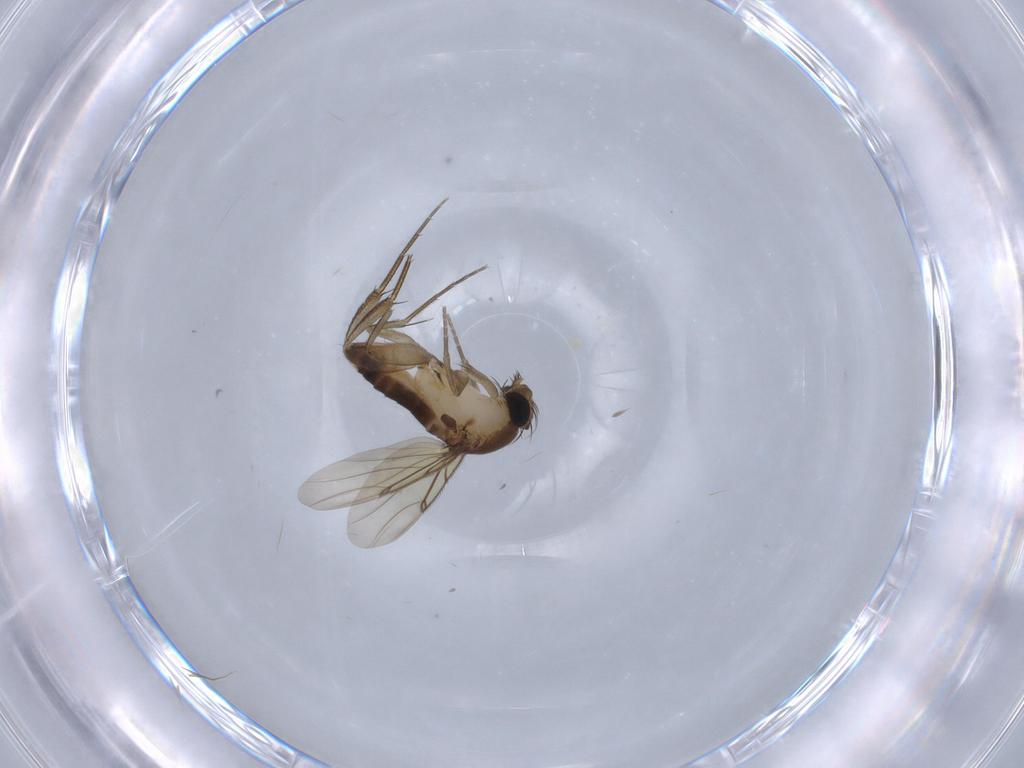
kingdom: Animalia
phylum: Arthropoda
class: Insecta
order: Diptera
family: Phoridae
